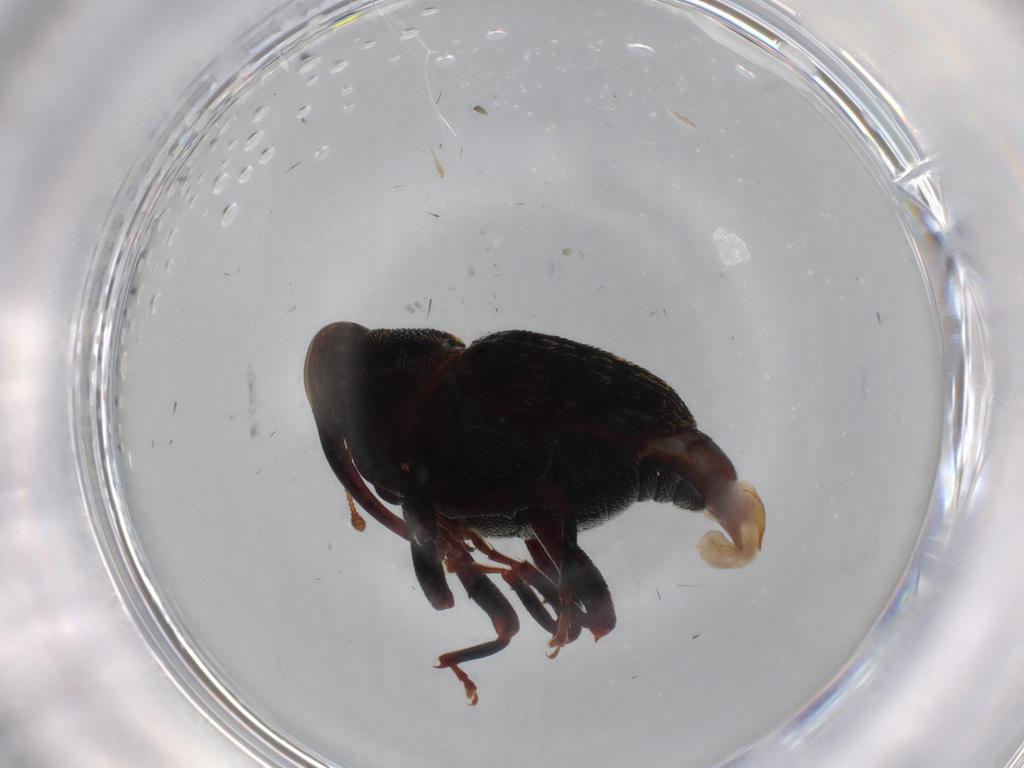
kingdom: Animalia
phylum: Arthropoda
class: Insecta
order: Coleoptera
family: Curculionidae
